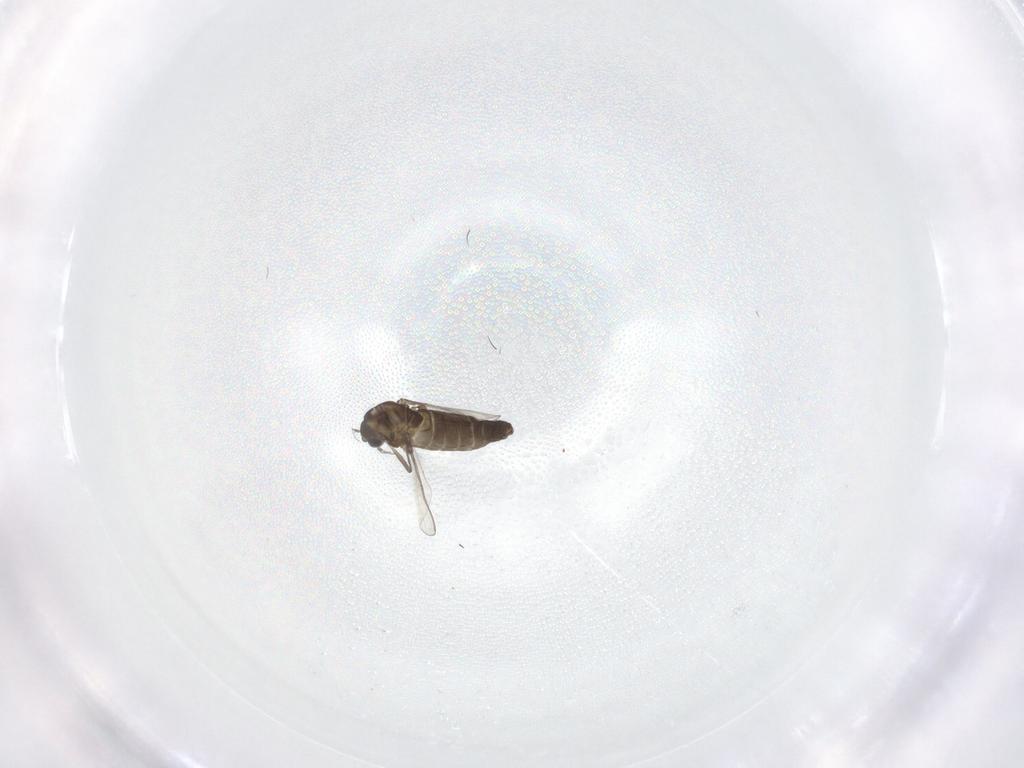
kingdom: Animalia
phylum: Arthropoda
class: Insecta
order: Diptera
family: Chironomidae
